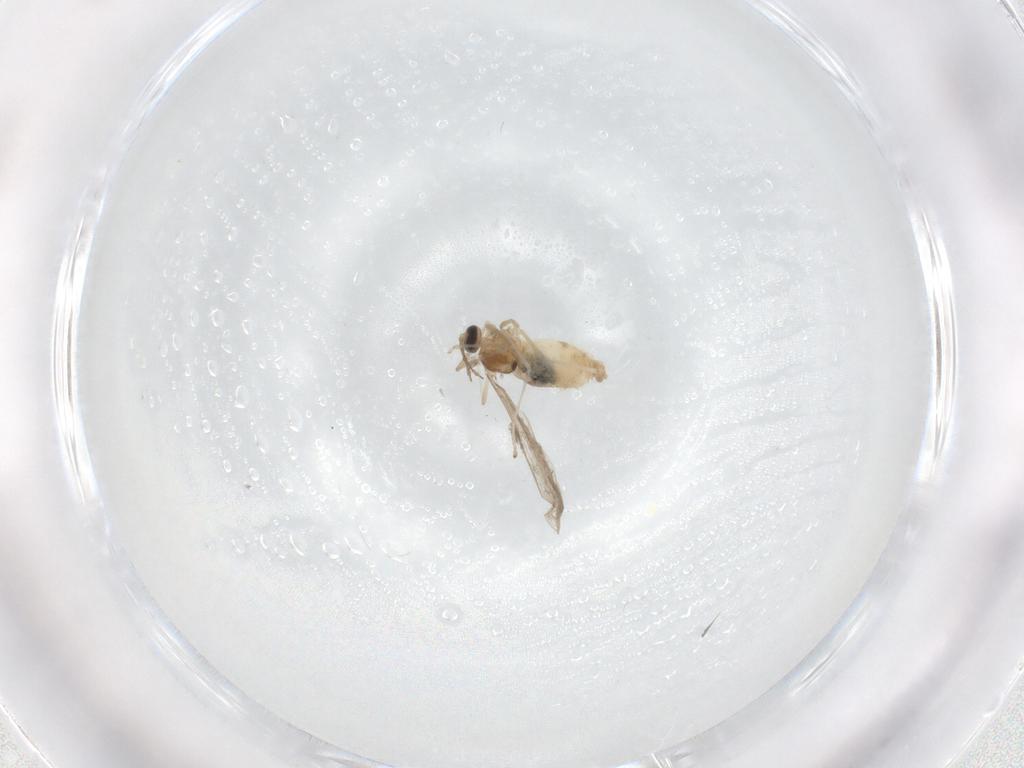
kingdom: Animalia
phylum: Arthropoda
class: Insecta
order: Diptera
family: Cecidomyiidae
